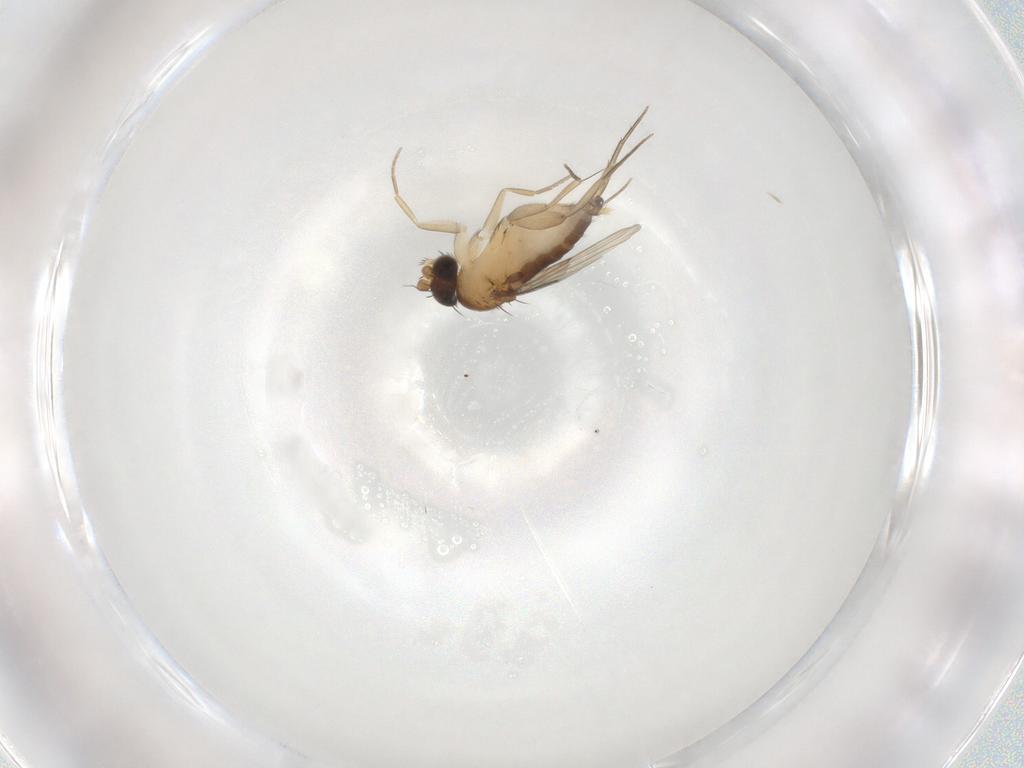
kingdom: Animalia
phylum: Arthropoda
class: Insecta
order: Diptera
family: Phoridae
